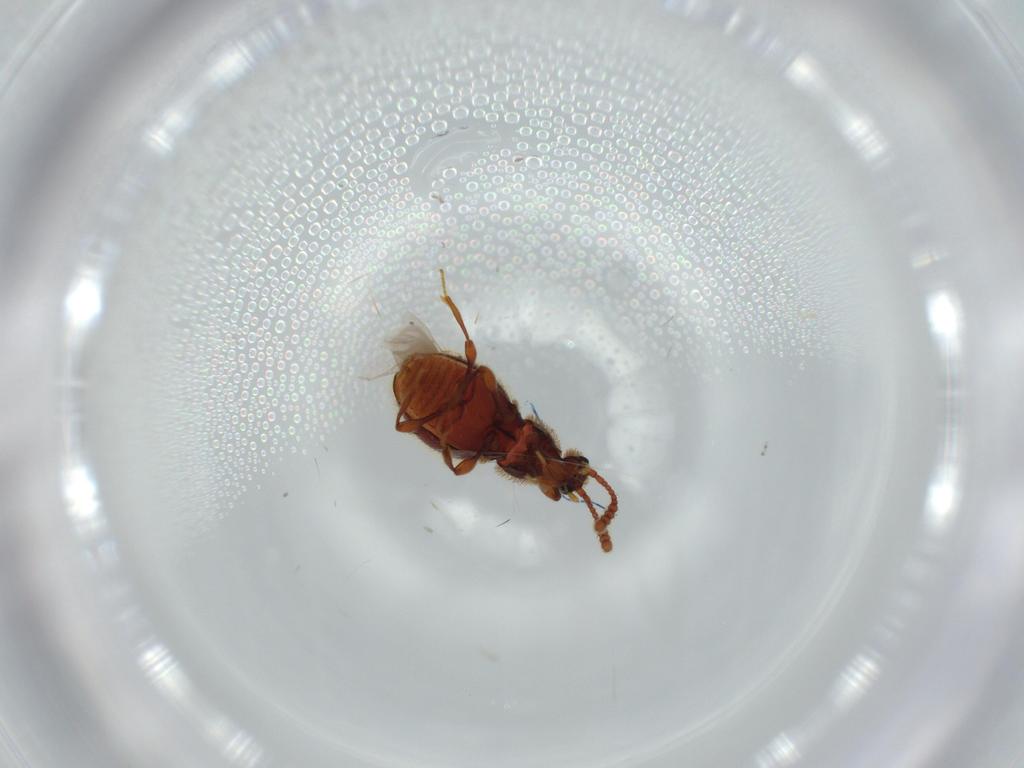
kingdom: Animalia
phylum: Arthropoda
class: Insecta
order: Coleoptera
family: Staphylinidae
